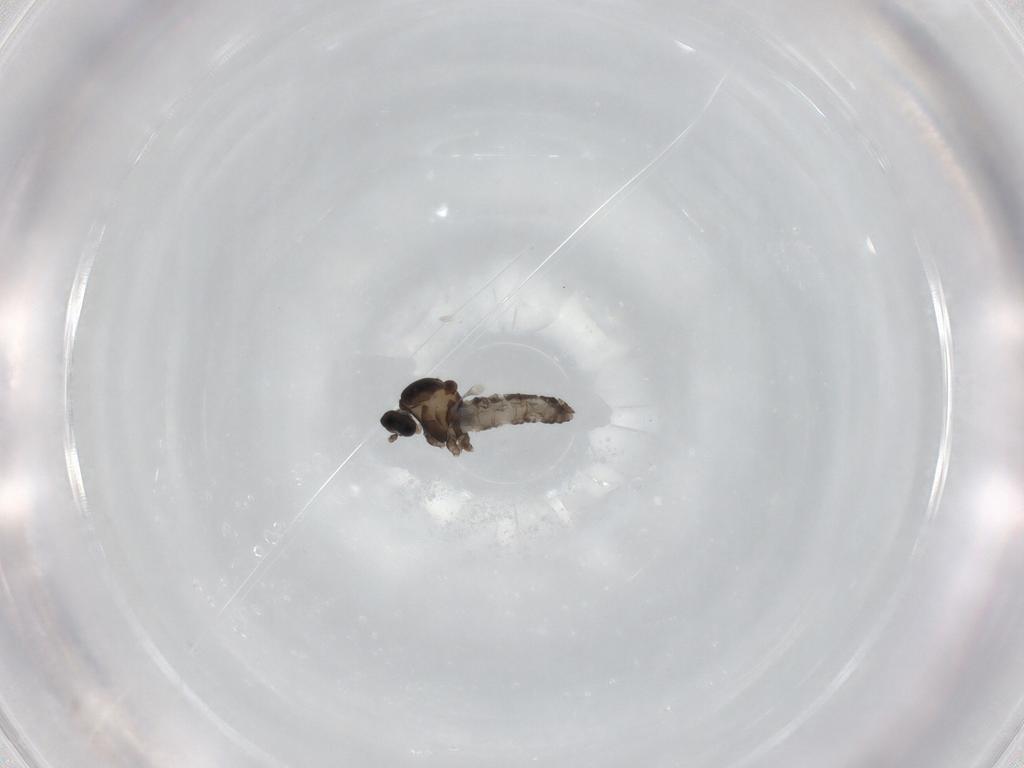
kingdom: Animalia
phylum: Arthropoda
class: Insecta
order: Diptera
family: Cecidomyiidae
